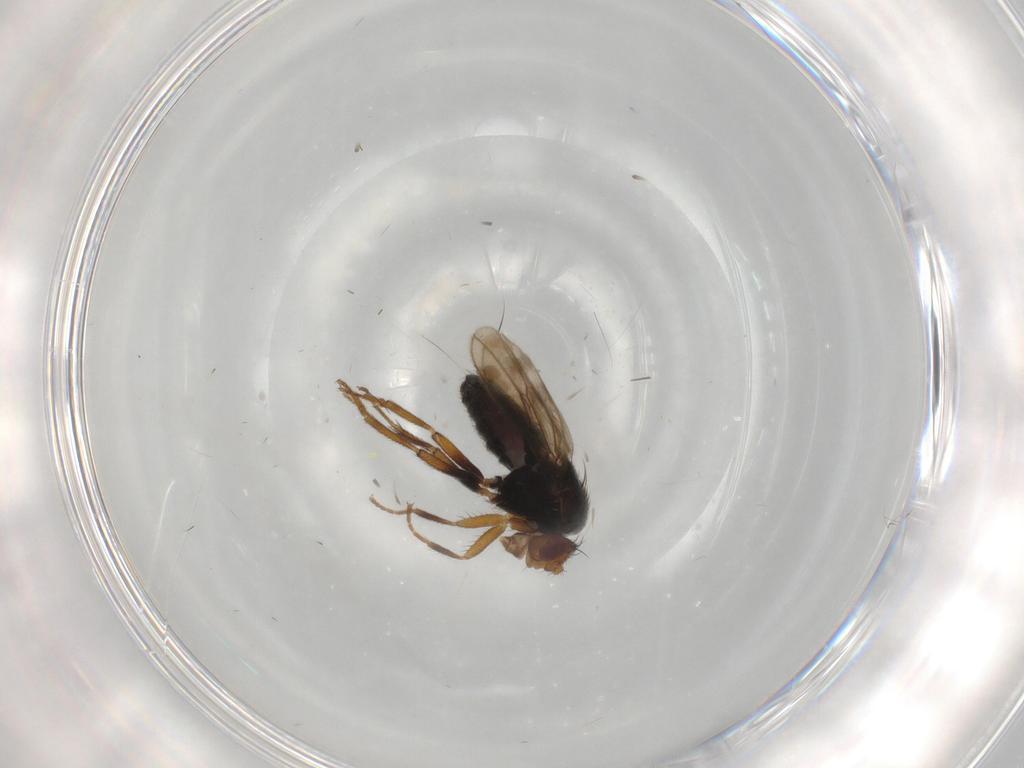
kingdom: Animalia
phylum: Arthropoda
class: Insecta
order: Diptera
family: Sphaeroceridae
